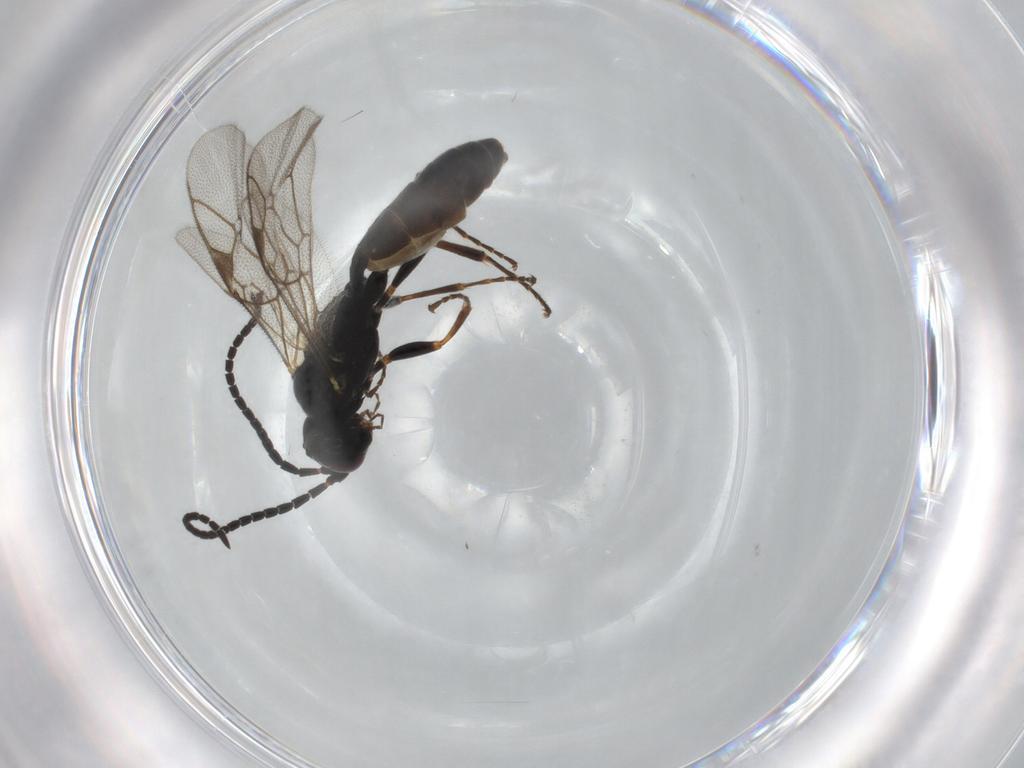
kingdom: Animalia
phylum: Arthropoda
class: Insecta
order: Hymenoptera
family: Ichneumonidae
